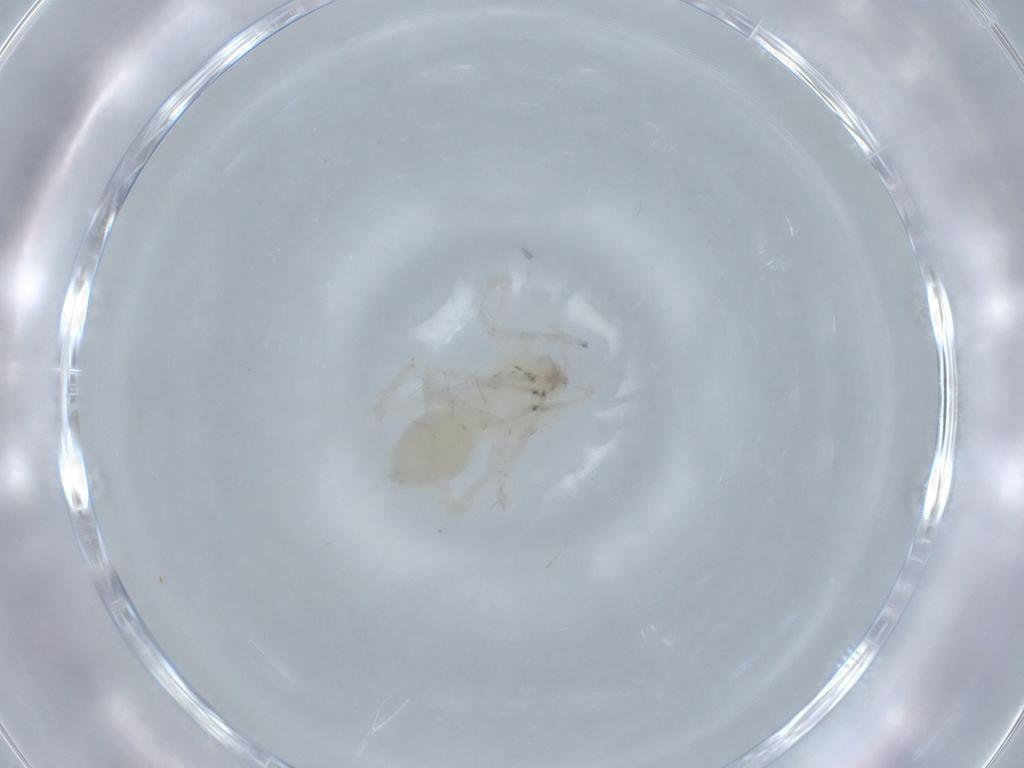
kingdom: Animalia
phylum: Arthropoda
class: Arachnida
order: Araneae
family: Anyphaenidae
